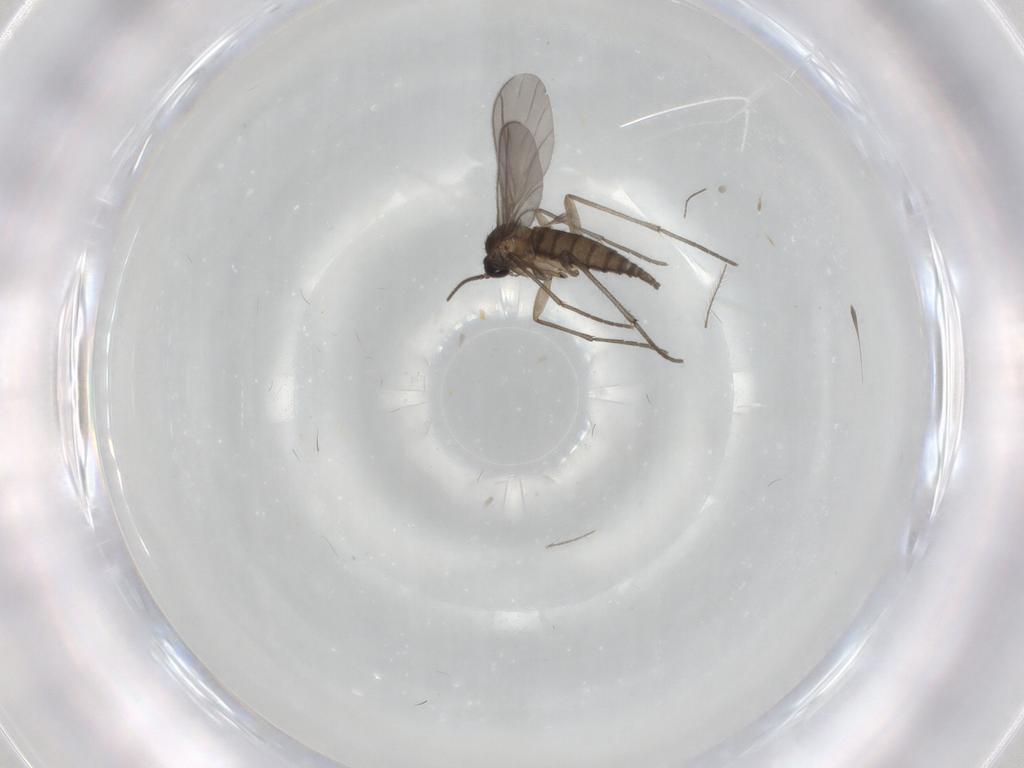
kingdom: Animalia
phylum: Arthropoda
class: Insecta
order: Diptera
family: Sciaridae
